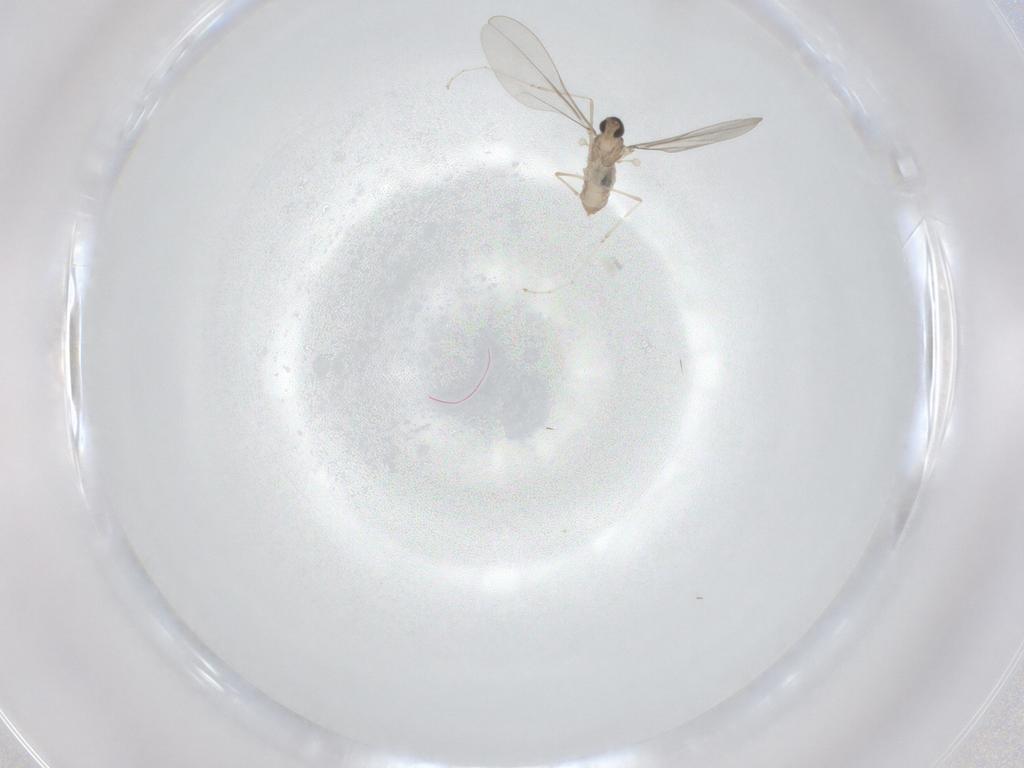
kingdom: Animalia
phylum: Arthropoda
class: Insecta
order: Diptera
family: Cecidomyiidae
